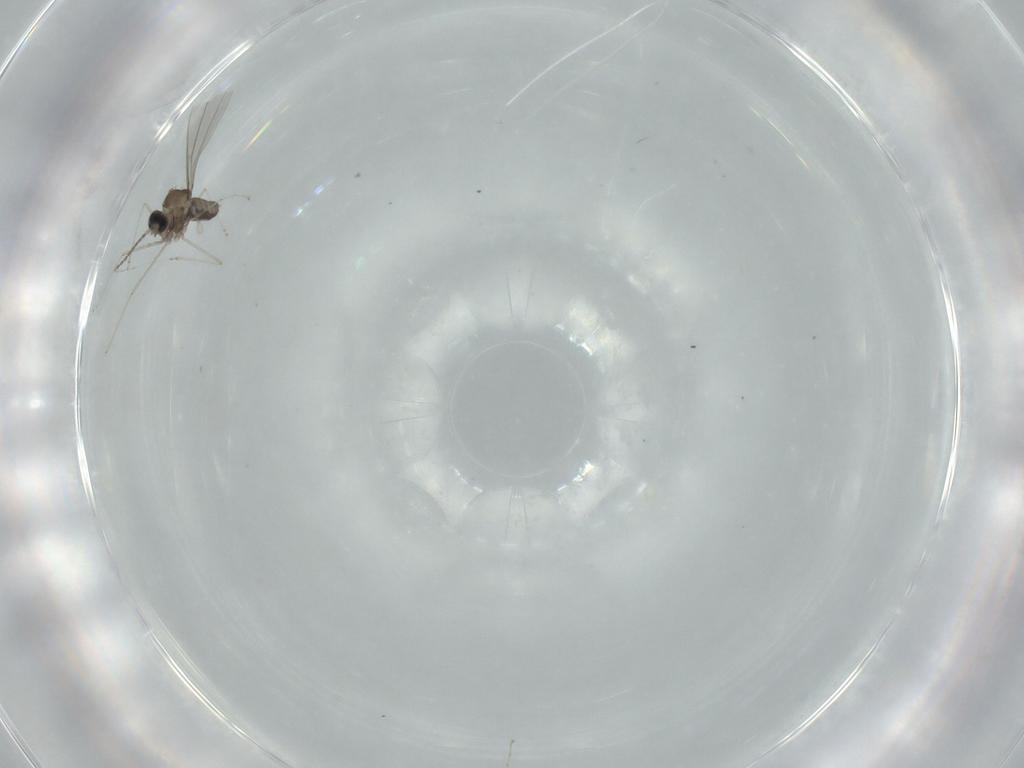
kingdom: Animalia
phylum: Arthropoda
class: Insecta
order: Diptera
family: Cecidomyiidae
